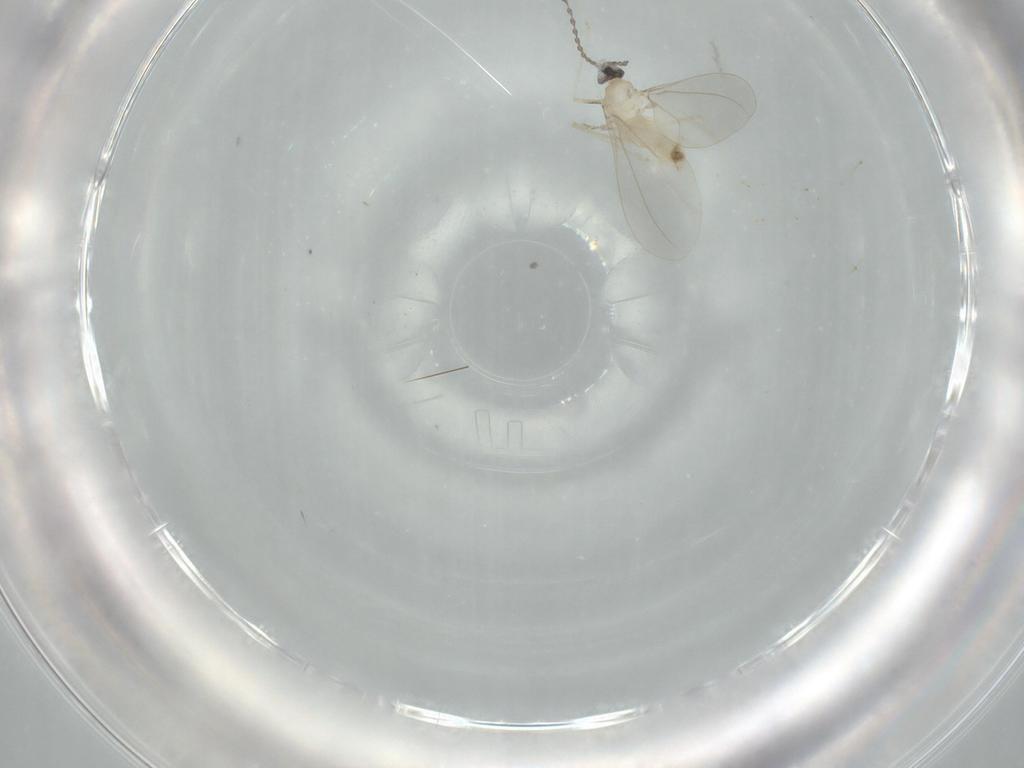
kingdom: Animalia
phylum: Arthropoda
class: Insecta
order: Diptera
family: Cecidomyiidae
